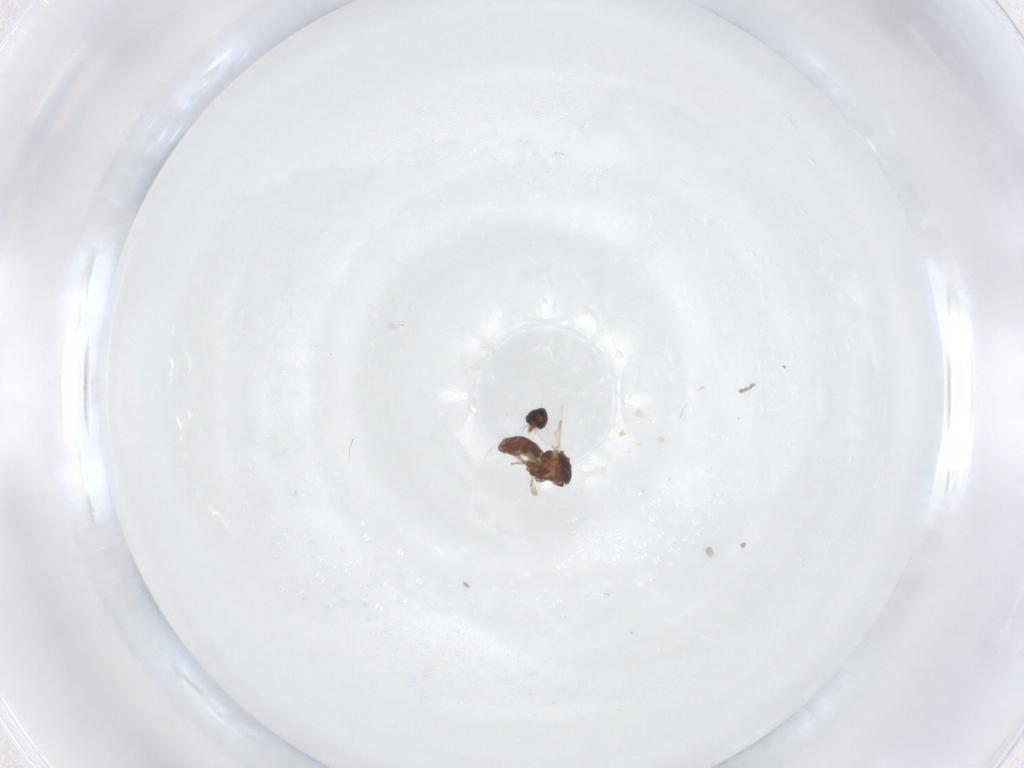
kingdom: Animalia
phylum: Arthropoda
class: Insecta
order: Diptera
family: Ceratopogonidae
